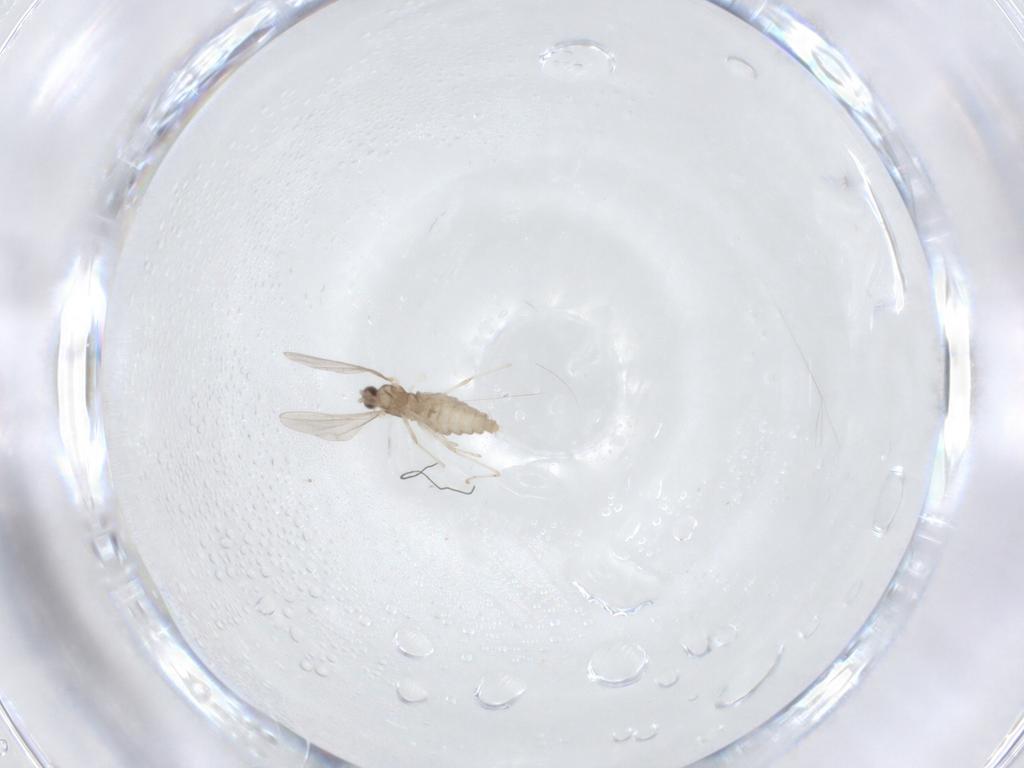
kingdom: Animalia
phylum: Arthropoda
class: Insecta
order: Diptera
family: Cecidomyiidae
